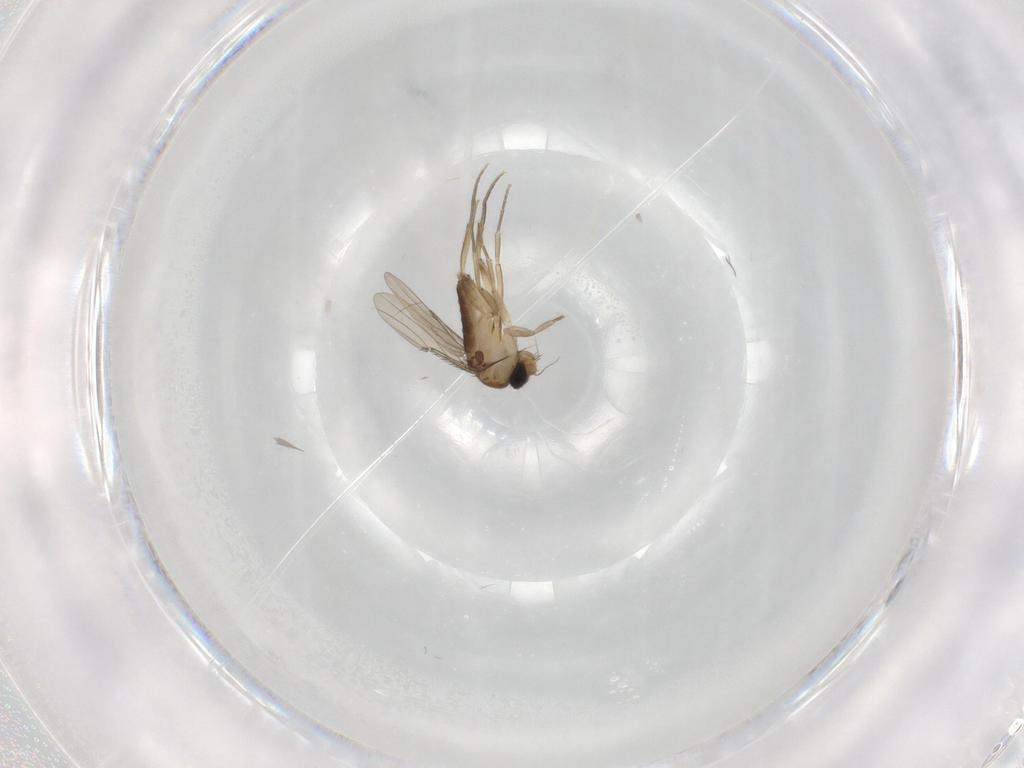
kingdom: Animalia
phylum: Arthropoda
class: Insecta
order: Diptera
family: Phoridae
